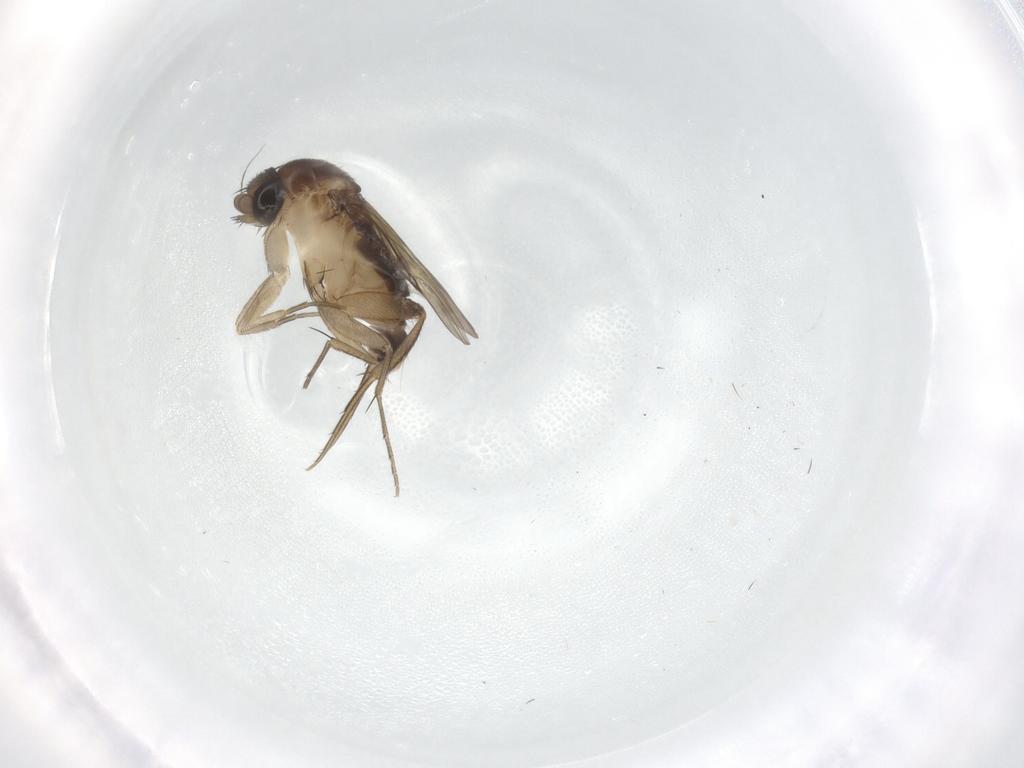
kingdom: Animalia
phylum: Arthropoda
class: Insecta
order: Diptera
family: Phoridae
